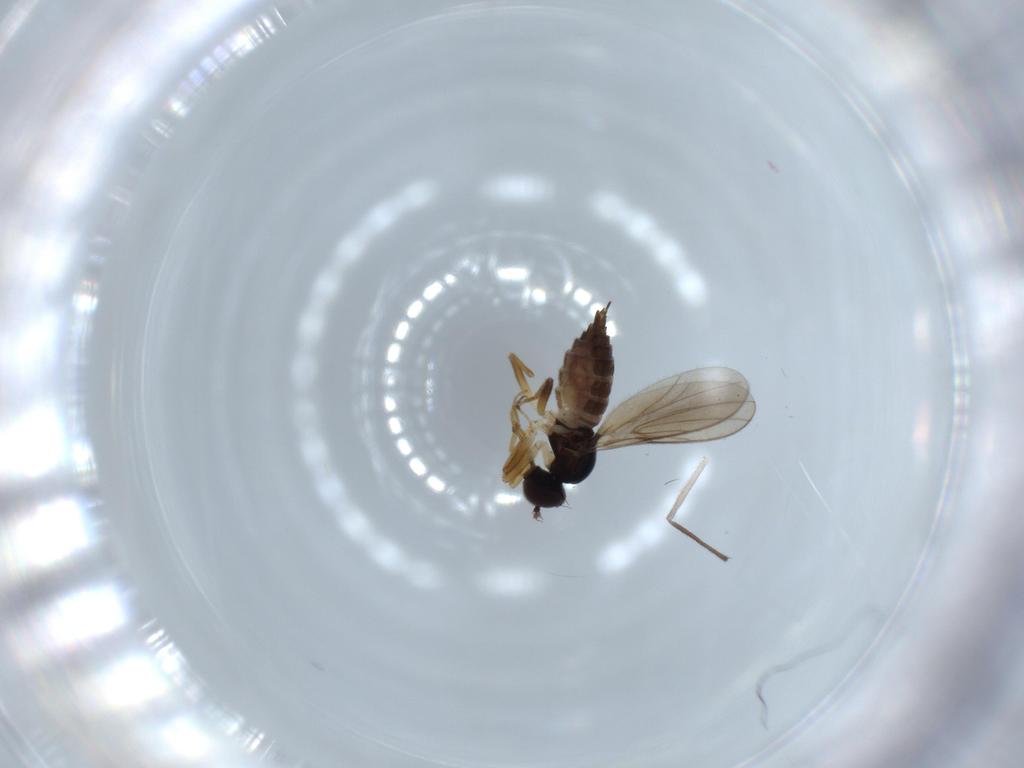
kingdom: Animalia
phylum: Arthropoda
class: Insecta
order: Diptera
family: Hybotidae
